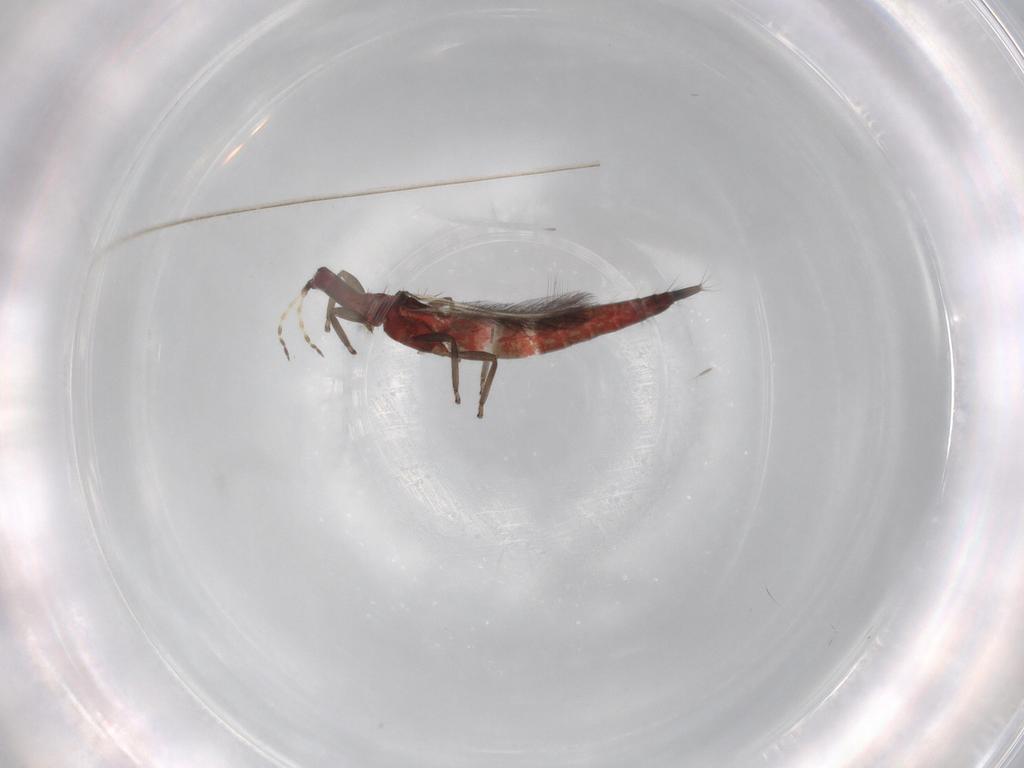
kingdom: Animalia
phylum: Arthropoda
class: Insecta
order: Thysanoptera
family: Phlaeothripidae
